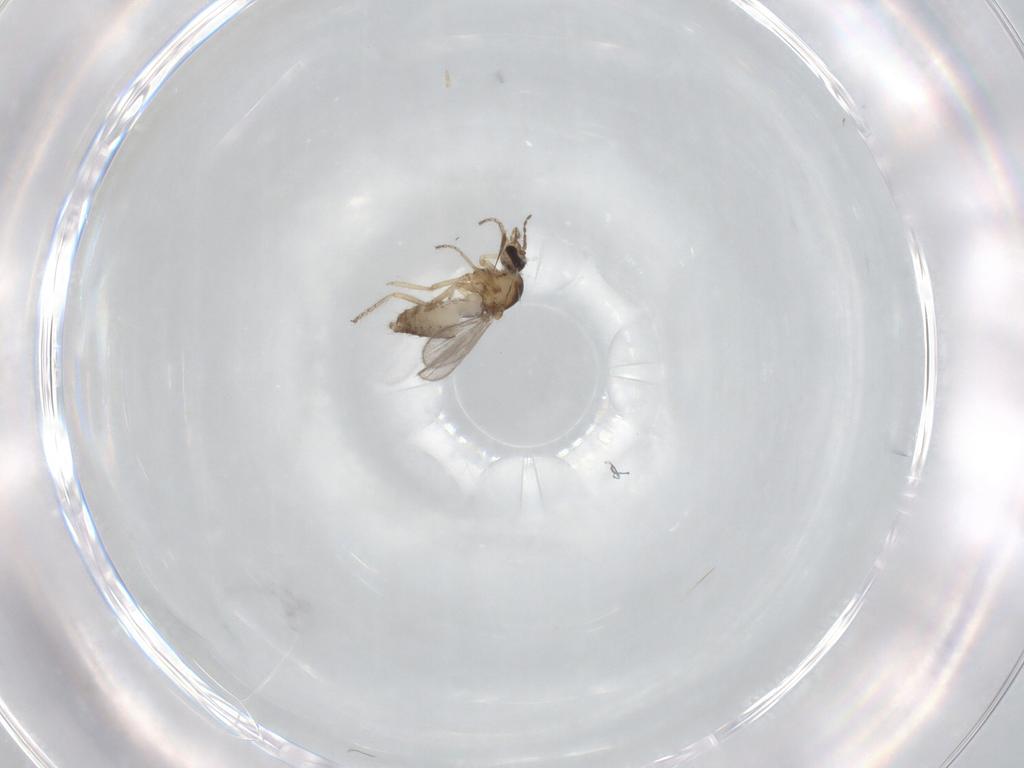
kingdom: Animalia
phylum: Arthropoda
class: Insecta
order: Diptera
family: Ceratopogonidae
